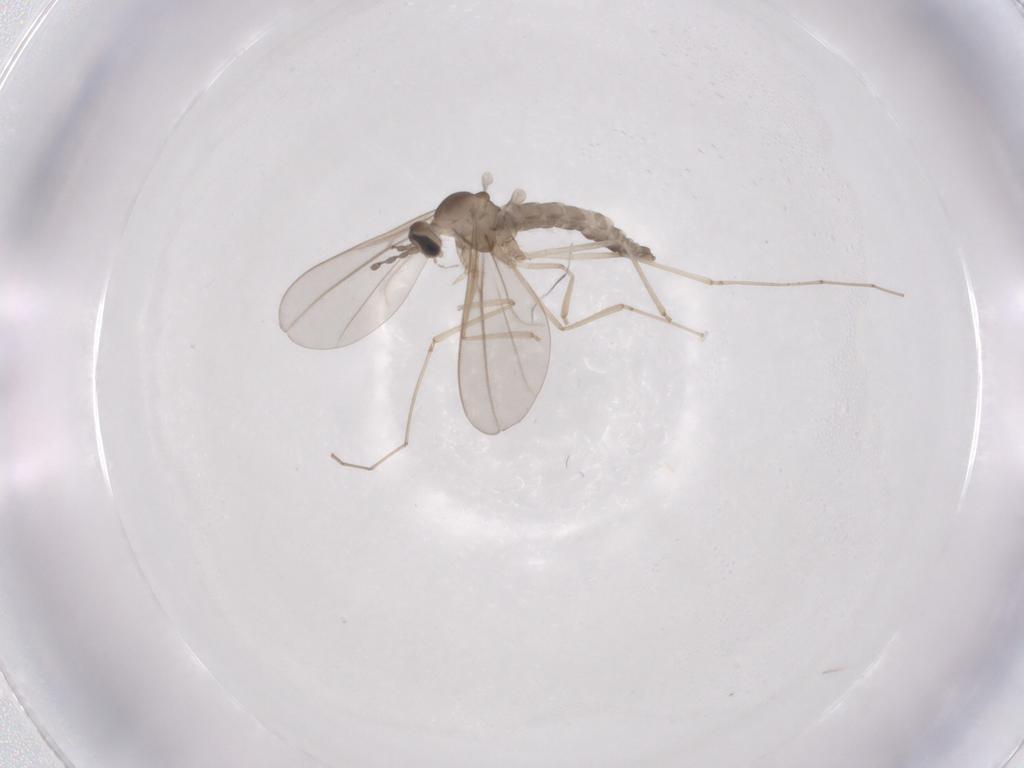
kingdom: Animalia
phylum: Arthropoda
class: Insecta
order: Diptera
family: Cecidomyiidae
